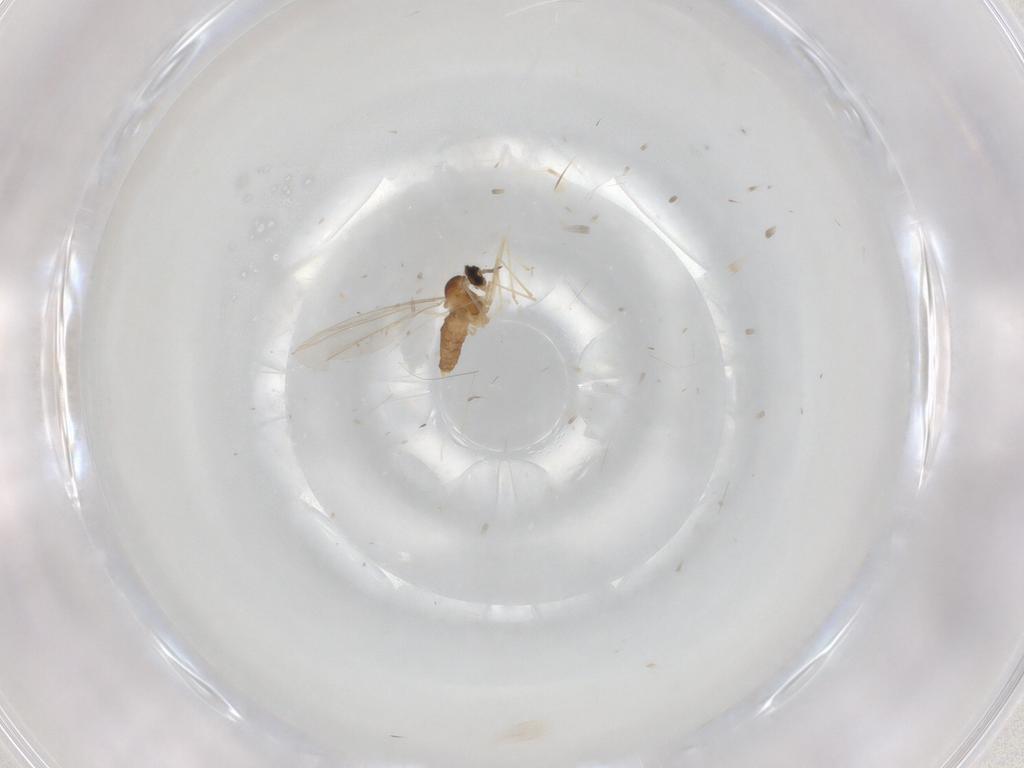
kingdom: Animalia
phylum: Arthropoda
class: Insecta
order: Diptera
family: Cecidomyiidae
